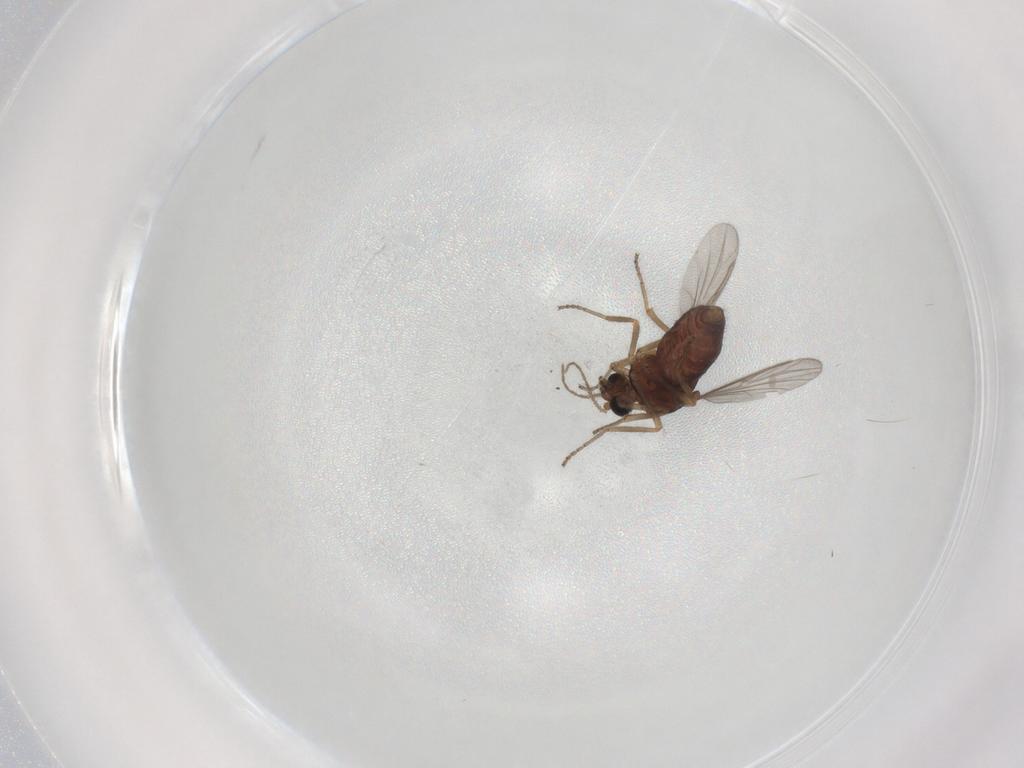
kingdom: Animalia
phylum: Arthropoda
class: Insecta
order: Diptera
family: Ceratopogonidae
